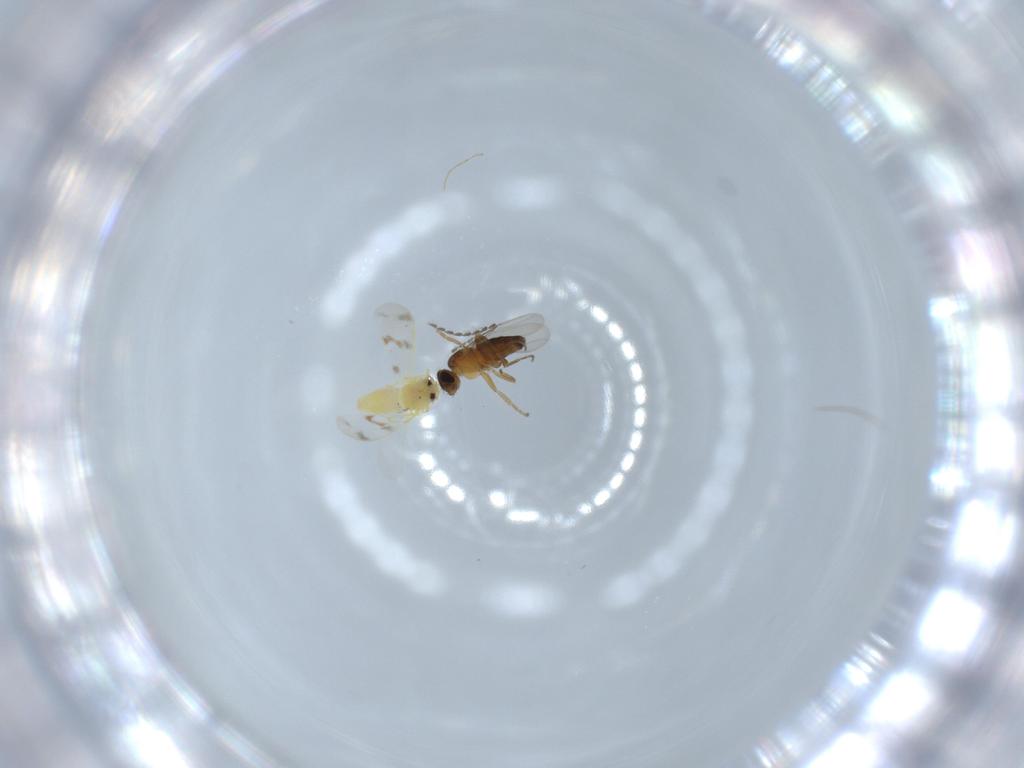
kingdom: Animalia
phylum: Arthropoda
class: Insecta
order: Hemiptera
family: Aleyrodidae
